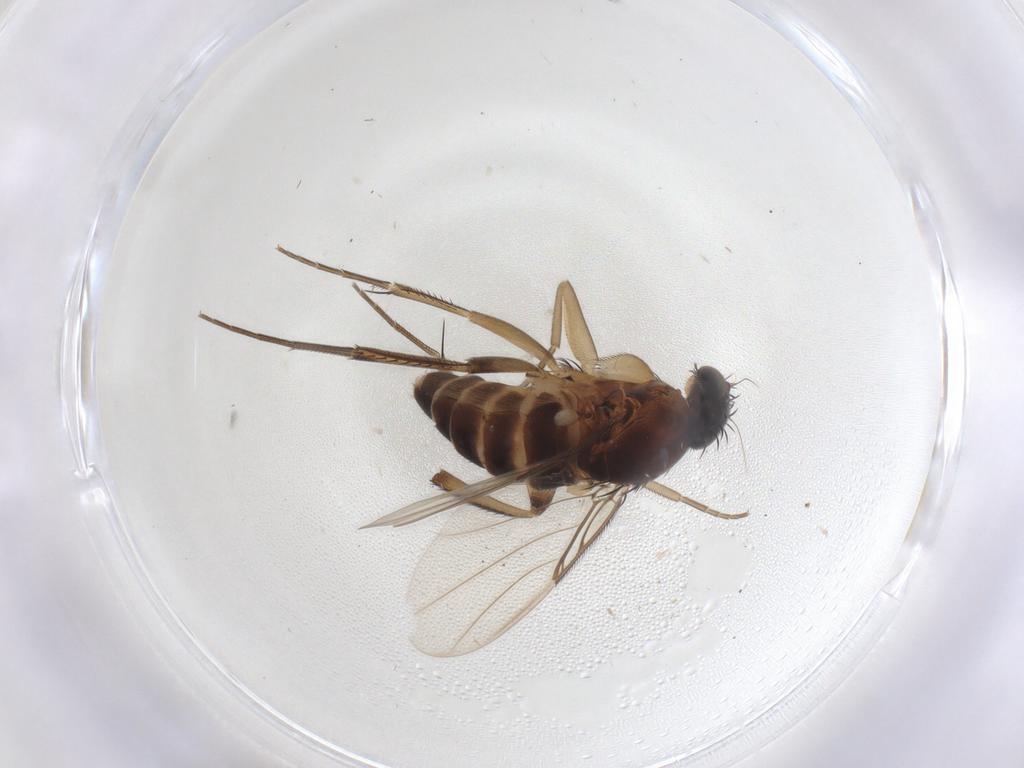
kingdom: Animalia
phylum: Arthropoda
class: Insecta
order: Diptera
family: Phoridae
